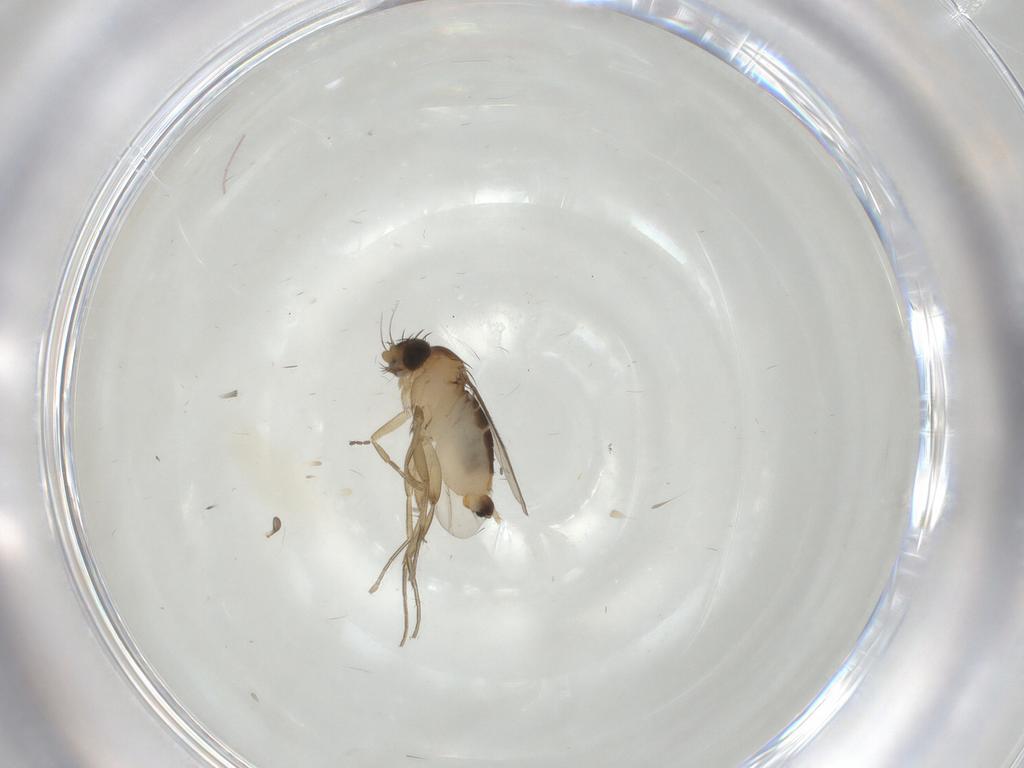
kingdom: Animalia
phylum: Arthropoda
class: Insecta
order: Diptera
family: Phoridae
